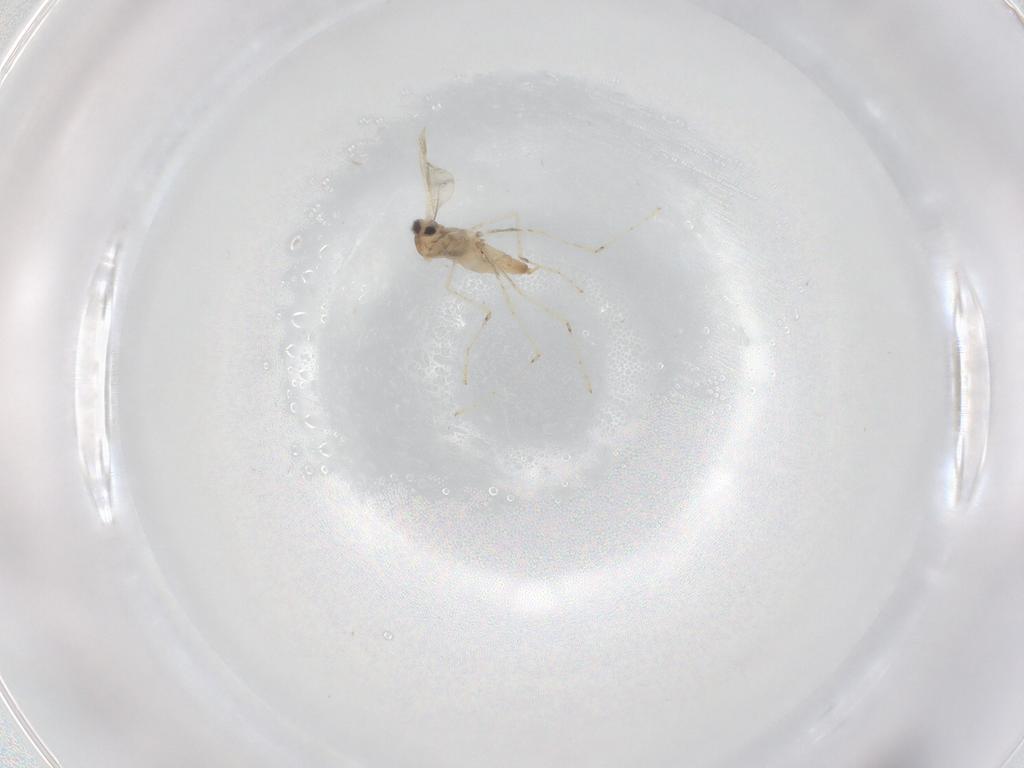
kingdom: Animalia
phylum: Arthropoda
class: Insecta
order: Diptera
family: Cecidomyiidae
